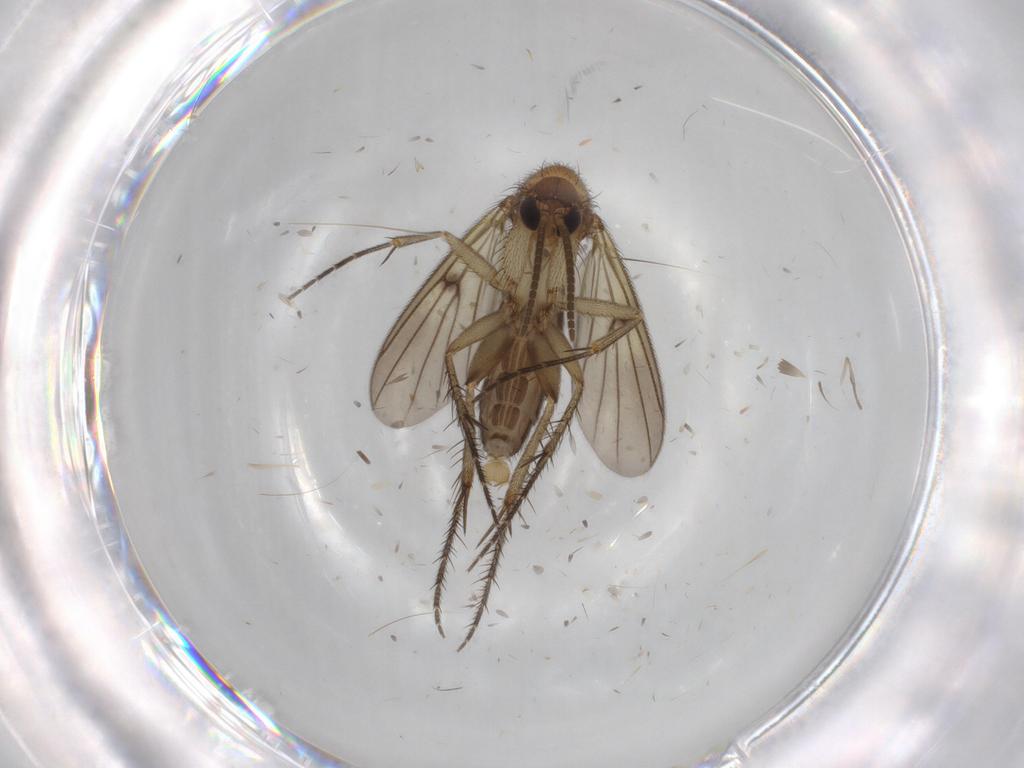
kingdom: Animalia
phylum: Arthropoda
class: Insecta
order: Diptera
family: Mycetophilidae
